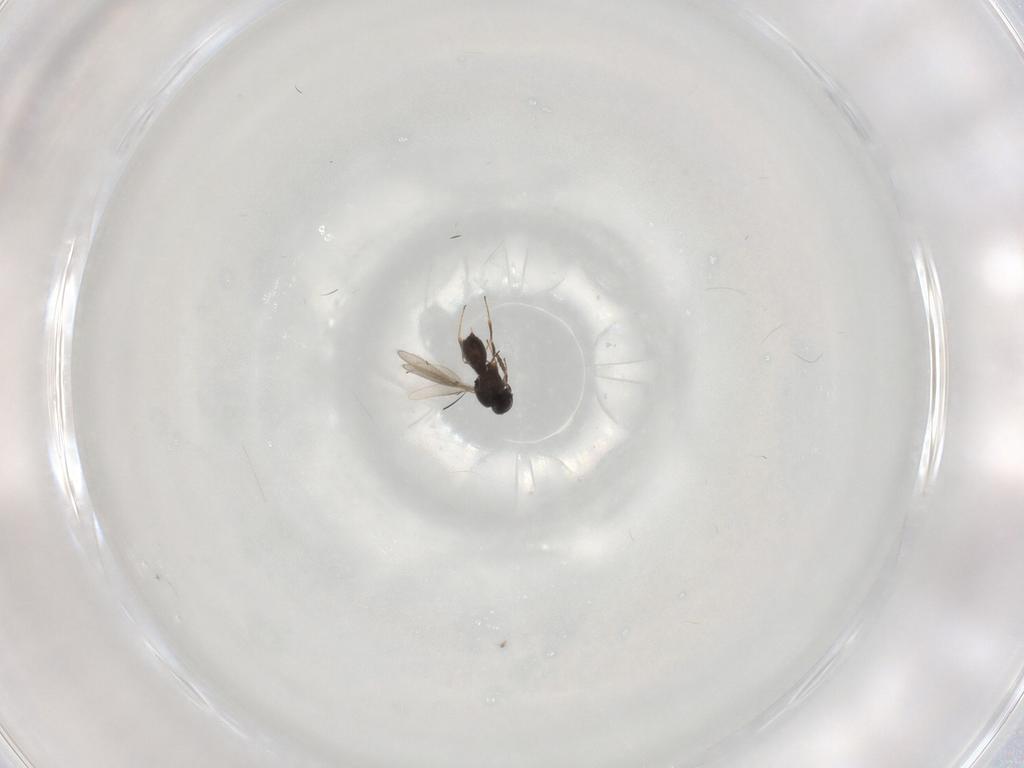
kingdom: Animalia
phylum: Arthropoda
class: Insecta
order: Hymenoptera
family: Scelionidae
